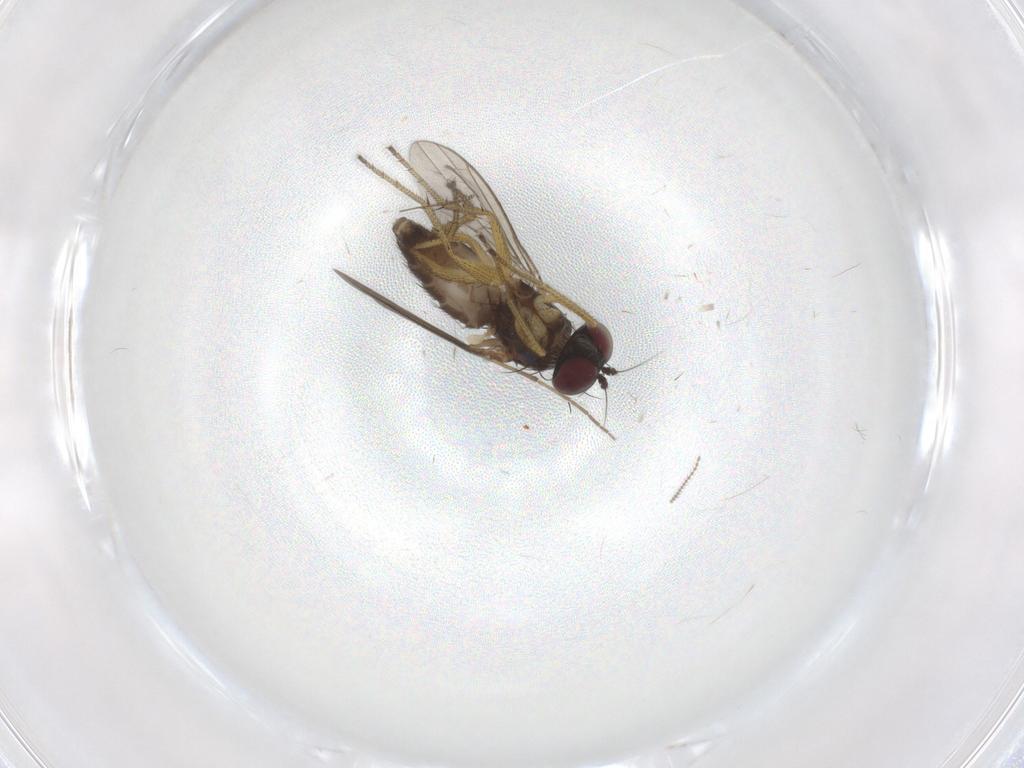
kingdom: Animalia
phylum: Arthropoda
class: Insecta
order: Diptera
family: Chironomidae
